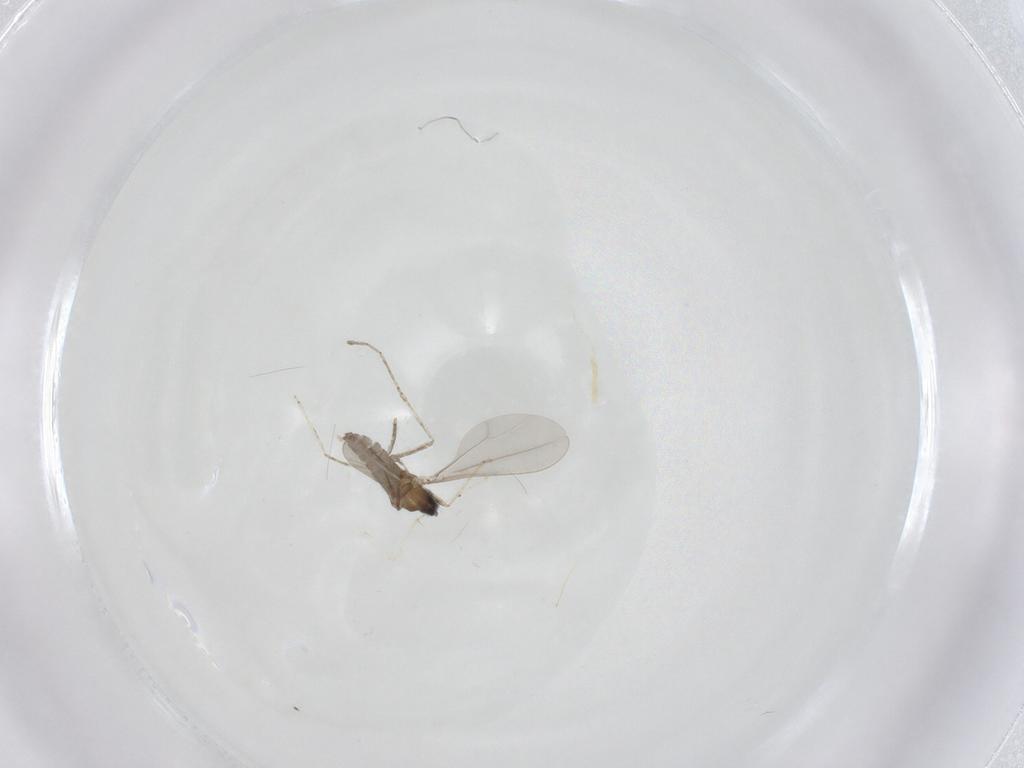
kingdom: Animalia
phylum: Arthropoda
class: Insecta
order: Diptera
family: Cecidomyiidae
